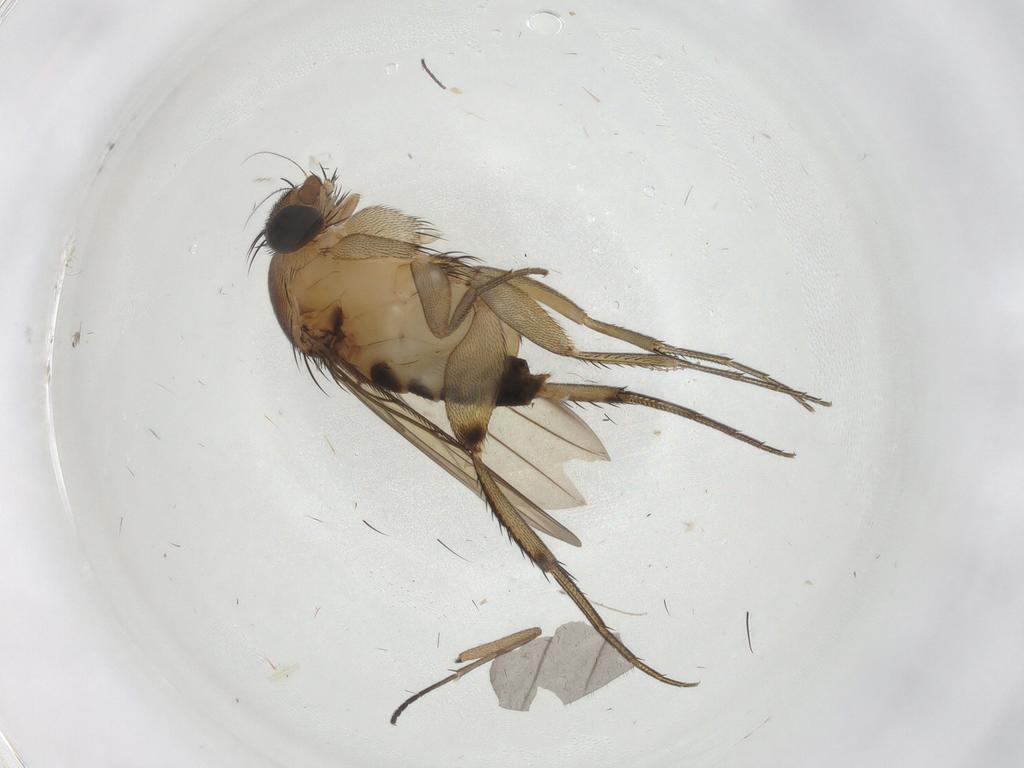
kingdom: Animalia
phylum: Arthropoda
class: Insecta
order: Diptera
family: Phoridae
